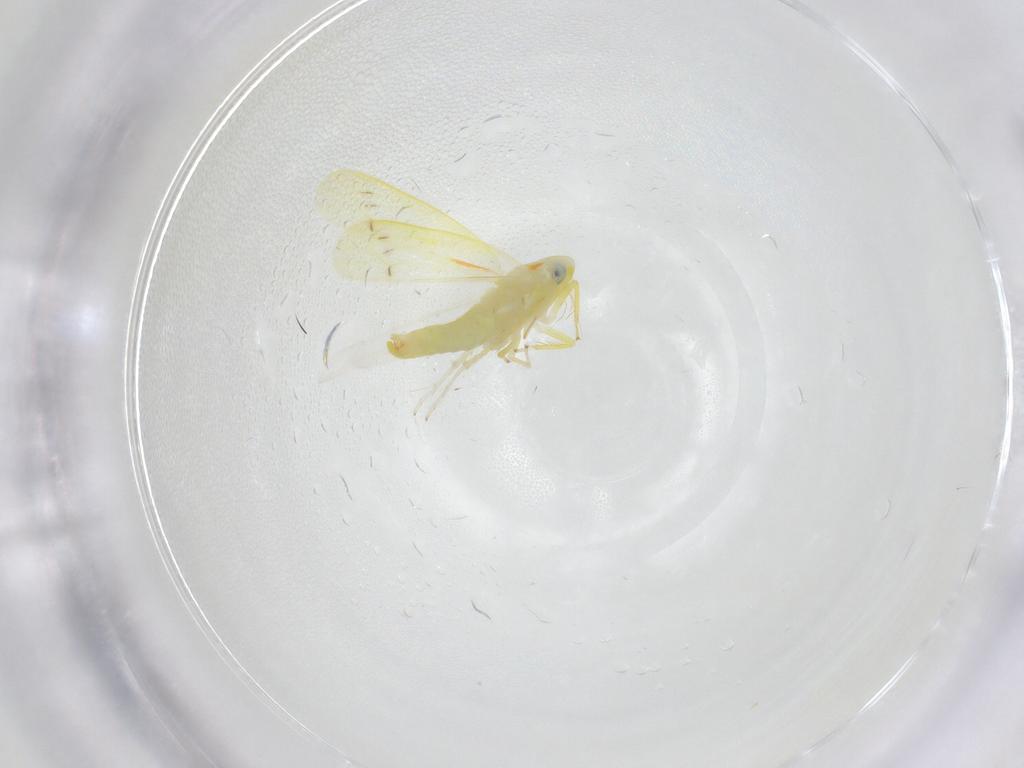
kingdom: Animalia
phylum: Arthropoda
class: Insecta
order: Hemiptera
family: Cicadellidae
